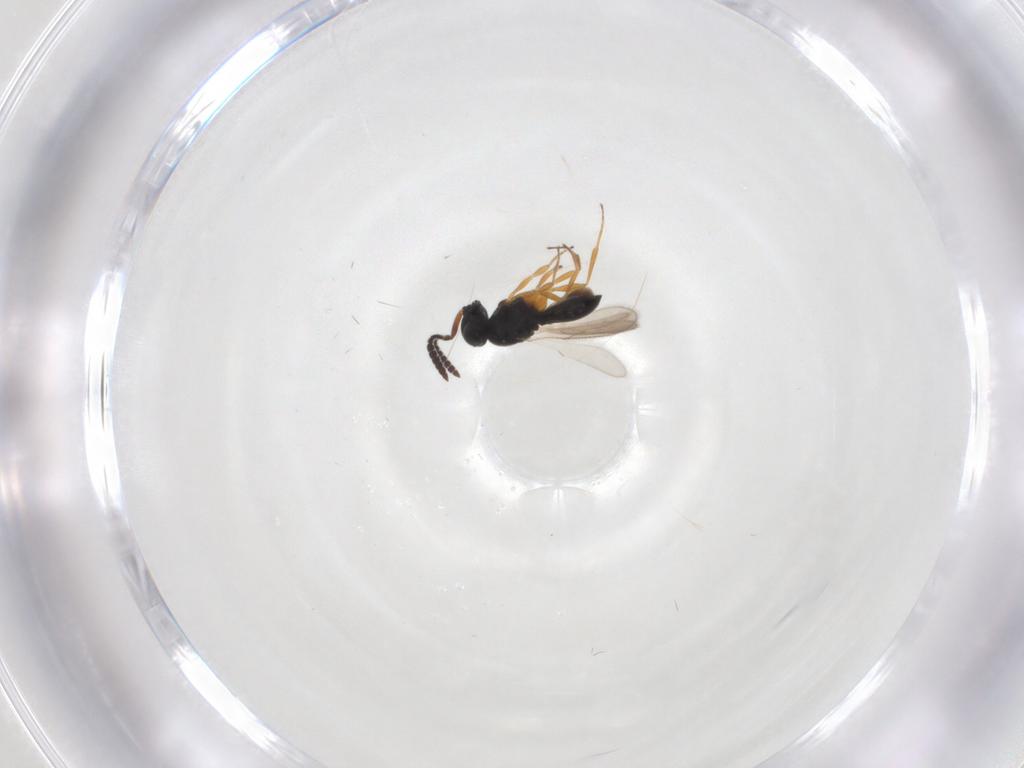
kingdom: Animalia
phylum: Arthropoda
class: Insecta
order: Hymenoptera
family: Scelionidae
